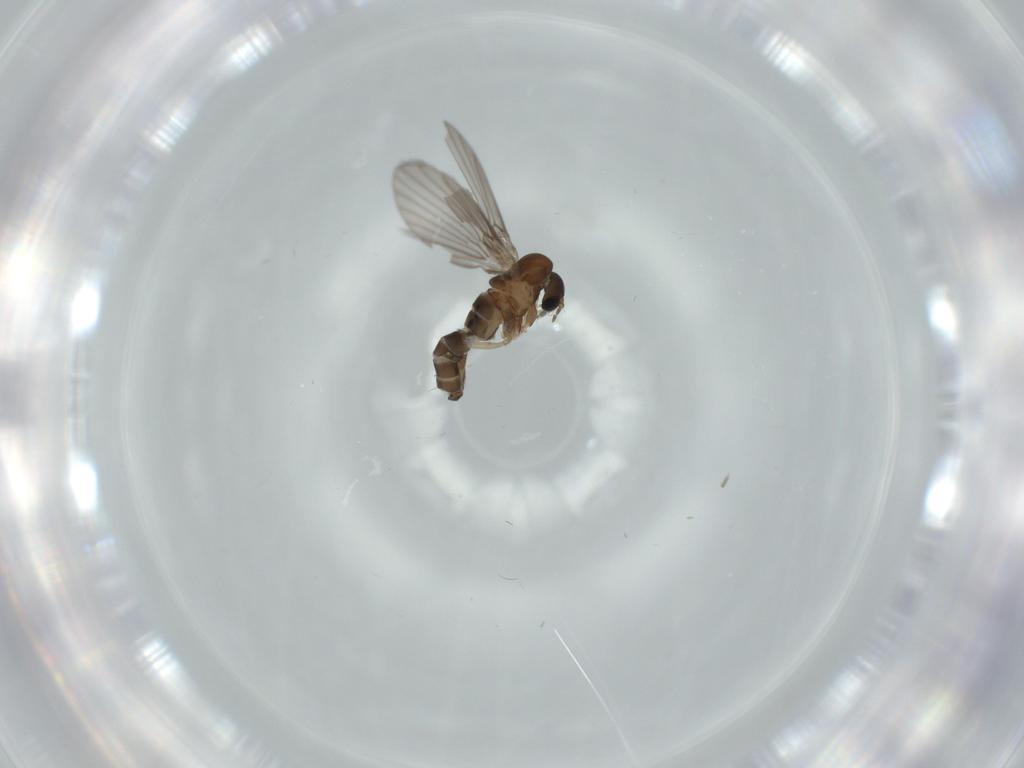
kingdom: Animalia
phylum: Arthropoda
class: Insecta
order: Diptera
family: Psychodidae
